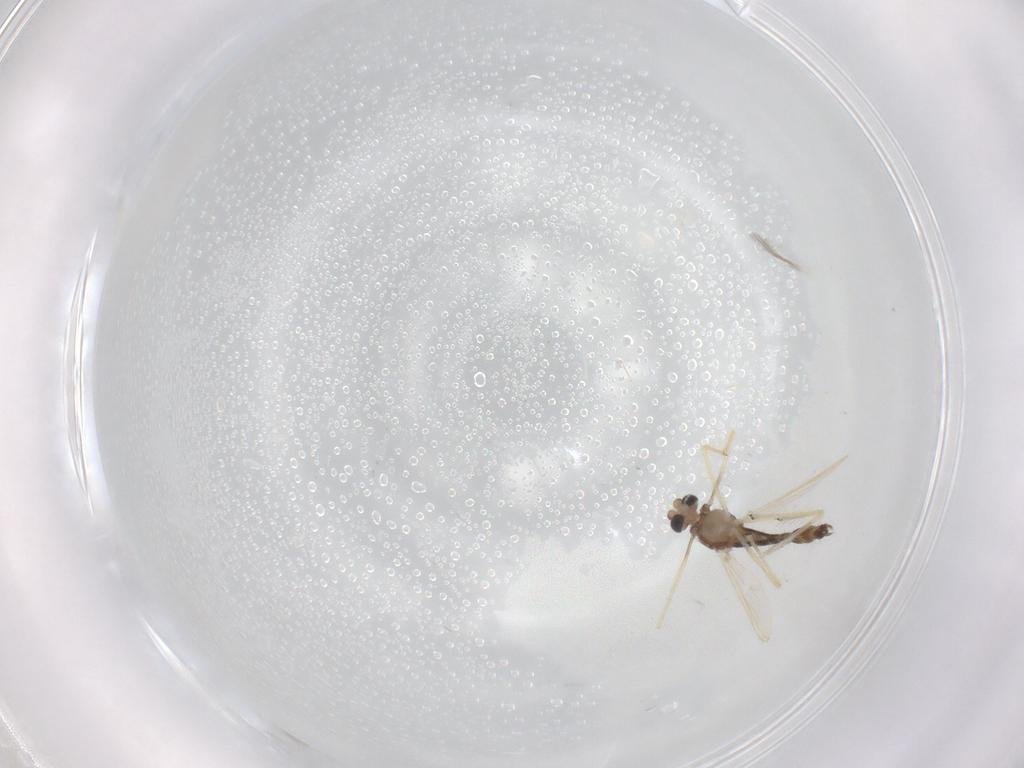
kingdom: Animalia
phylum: Arthropoda
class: Insecta
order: Diptera
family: Chironomidae
